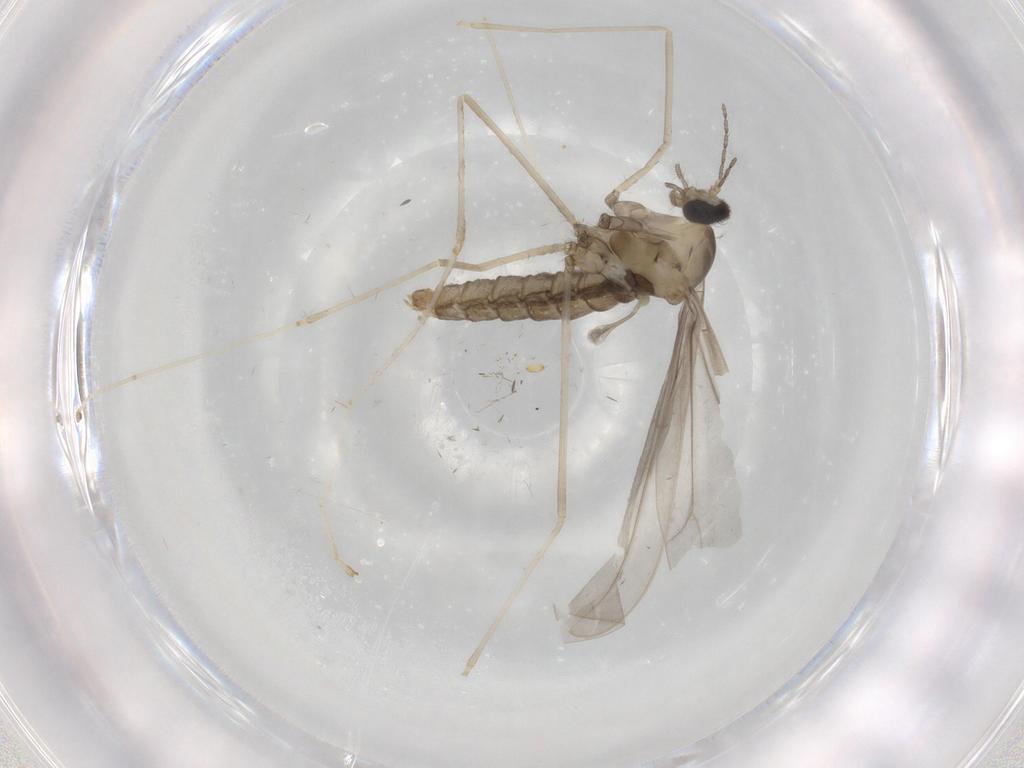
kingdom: Animalia
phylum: Arthropoda
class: Insecta
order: Diptera
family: Cecidomyiidae
